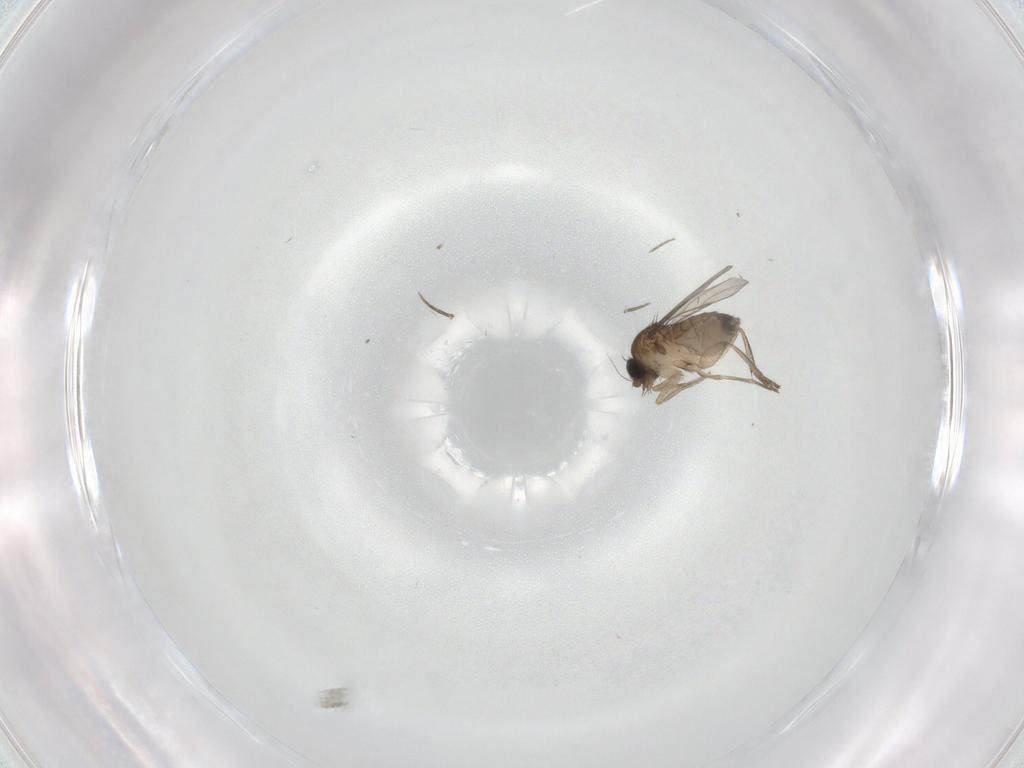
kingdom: Animalia
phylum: Arthropoda
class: Insecta
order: Diptera
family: Phoridae
